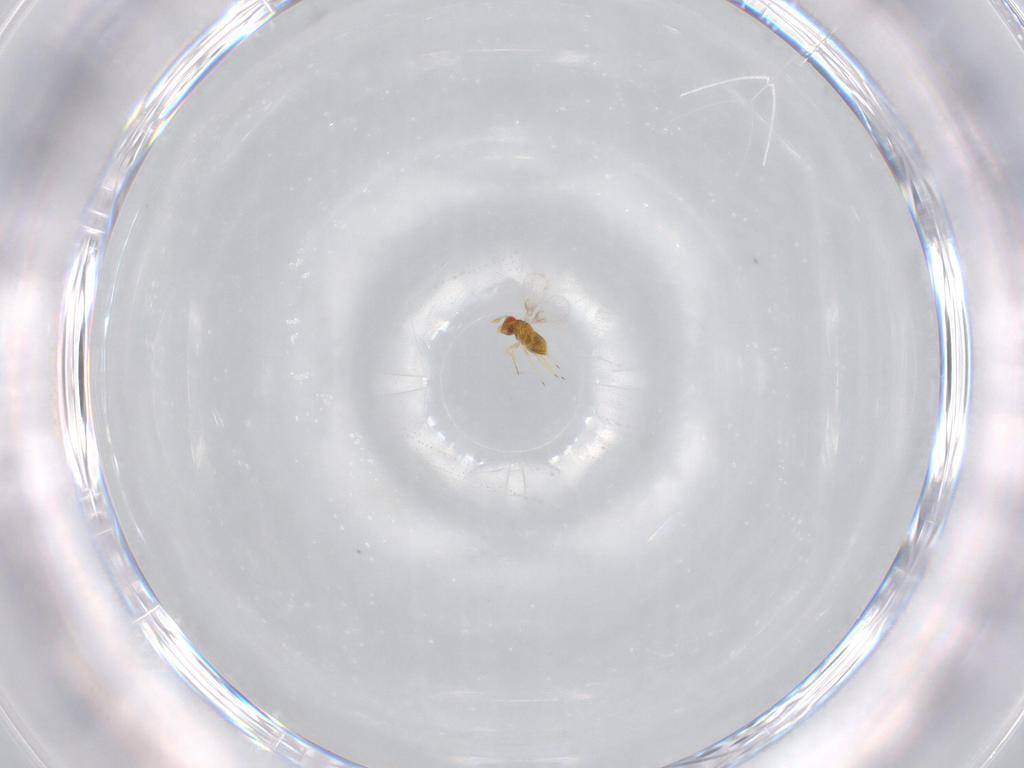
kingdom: Animalia
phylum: Arthropoda
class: Insecta
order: Hymenoptera
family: Trichogrammatidae
